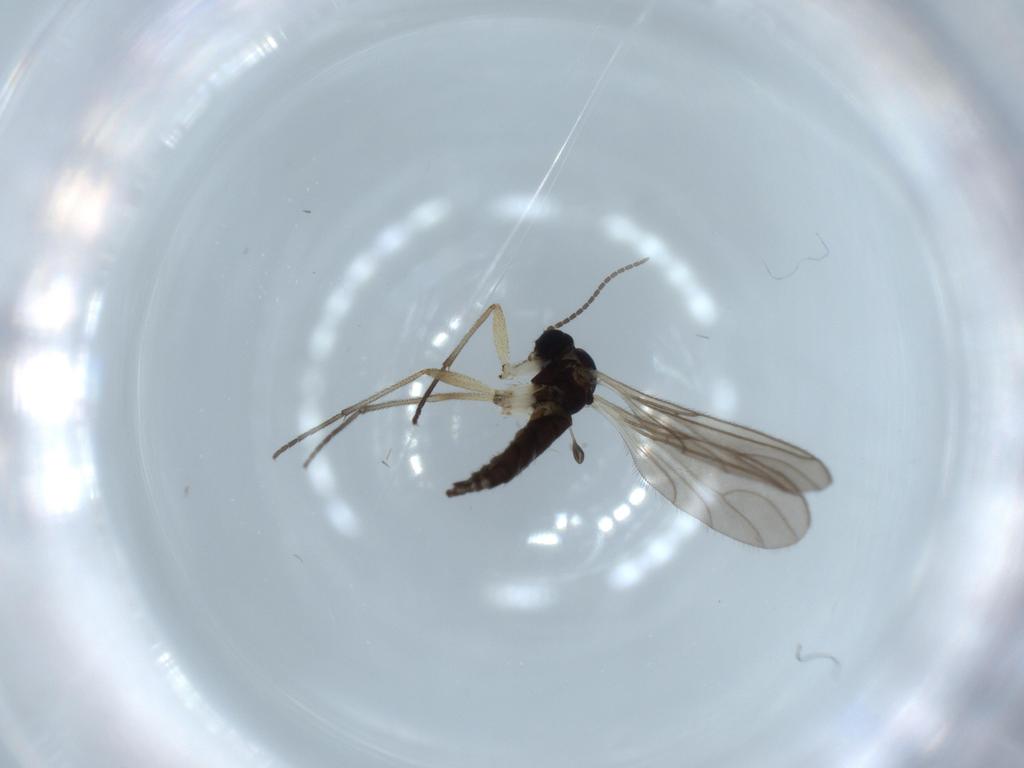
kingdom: Animalia
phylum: Arthropoda
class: Insecta
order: Diptera
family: Sciaridae
